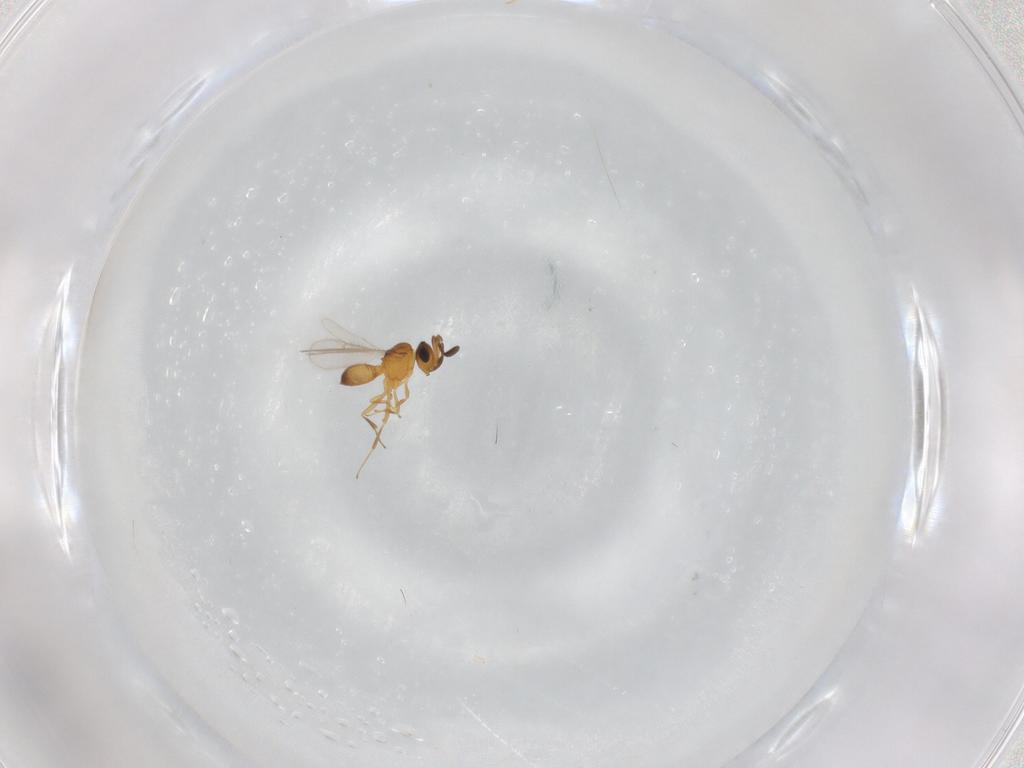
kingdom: Animalia
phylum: Arthropoda
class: Insecta
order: Hymenoptera
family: Scelionidae
